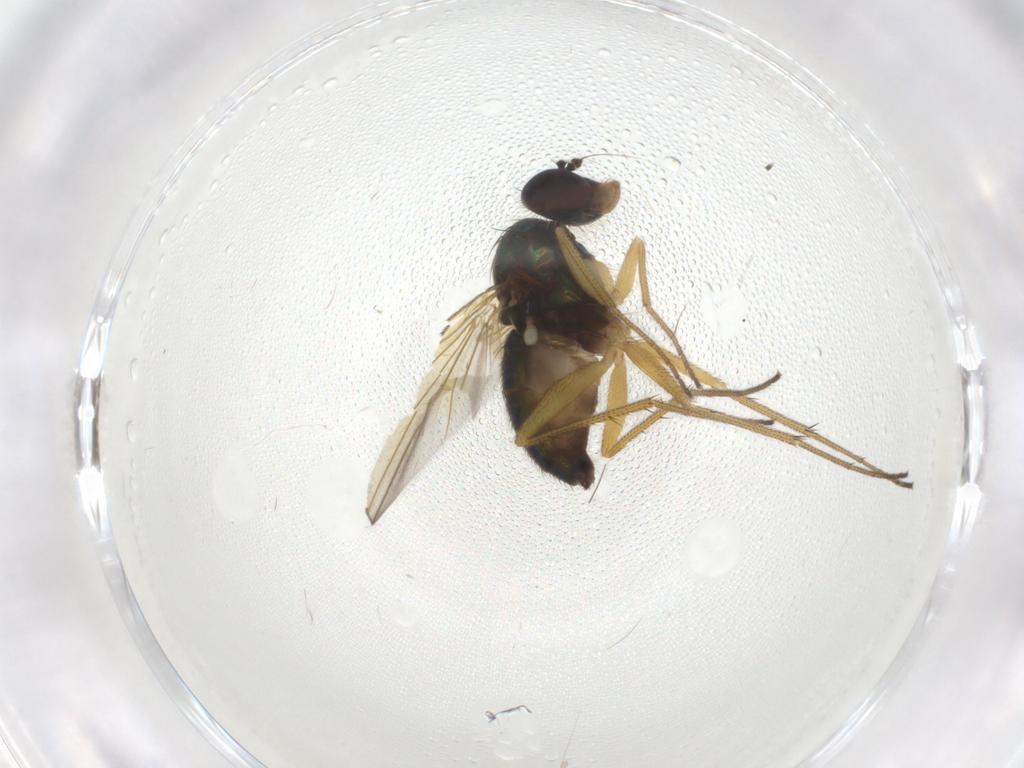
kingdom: Animalia
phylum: Arthropoda
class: Insecta
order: Diptera
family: Dolichopodidae
